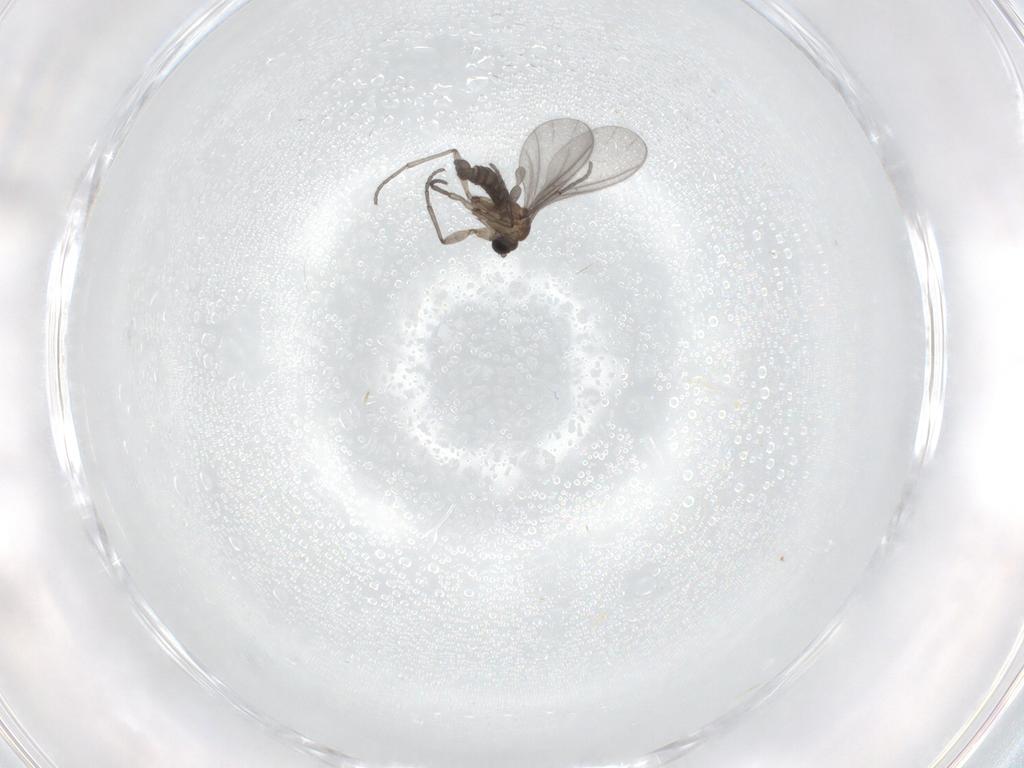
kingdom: Animalia
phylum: Arthropoda
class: Insecta
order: Diptera
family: Sciaridae
